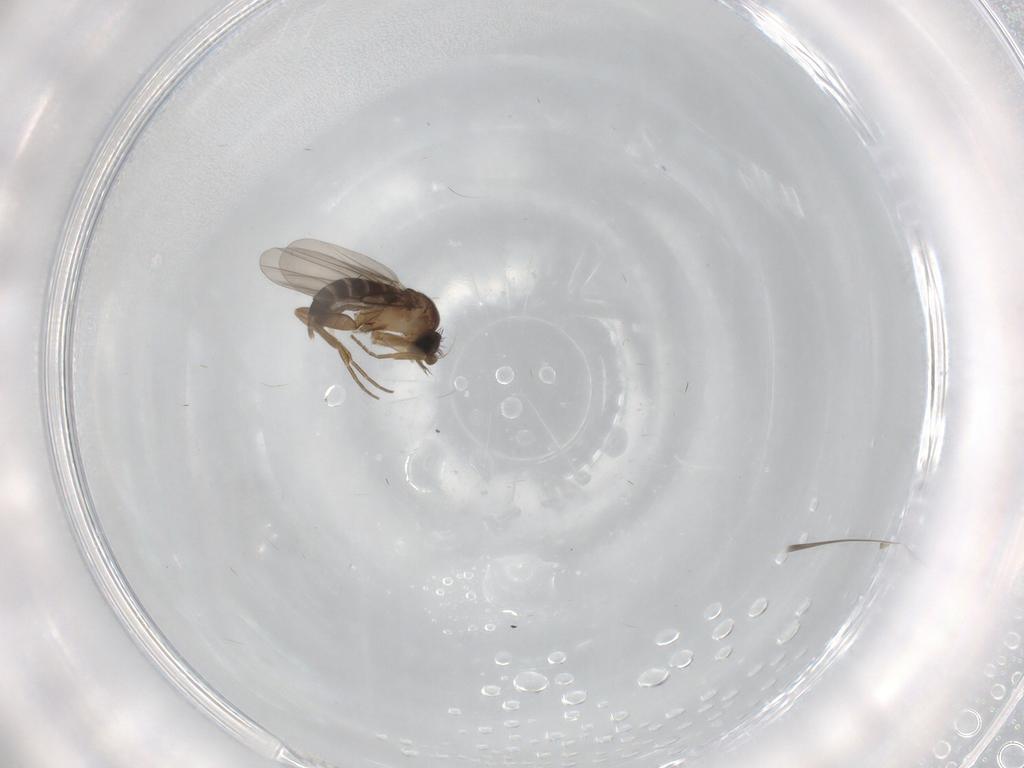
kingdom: Animalia
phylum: Arthropoda
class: Insecta
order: Diptera
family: Cecidomyiidae
